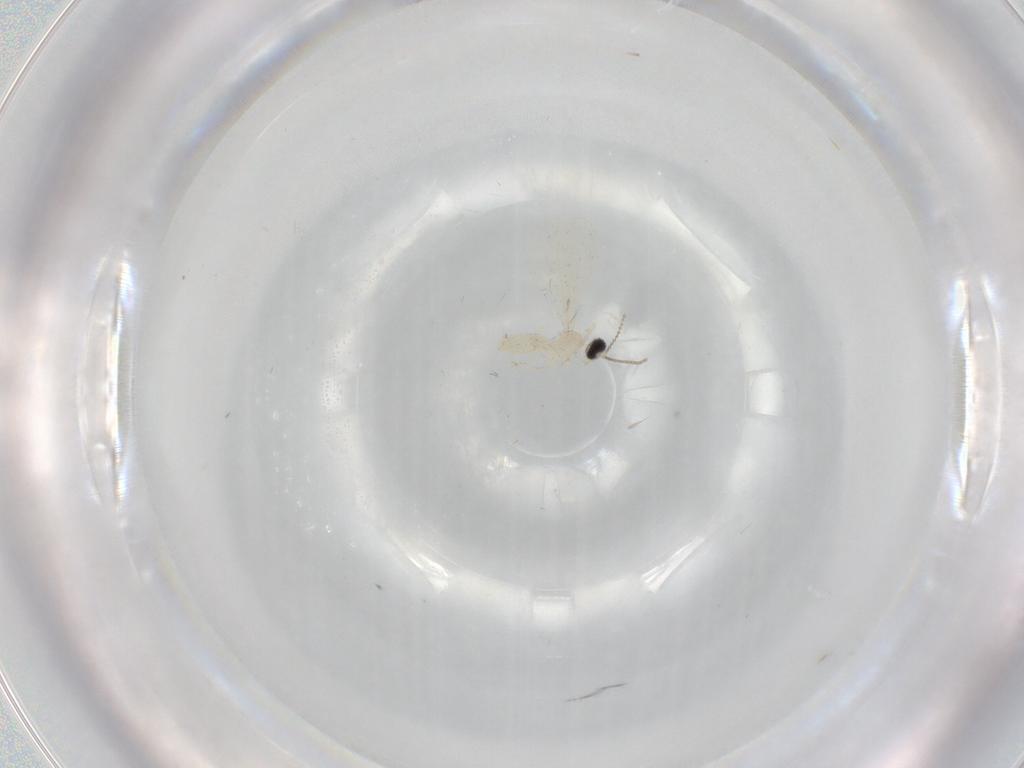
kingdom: Animalia
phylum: Arthropoda
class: Insecta
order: Diptera
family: Cecidomyiidae
